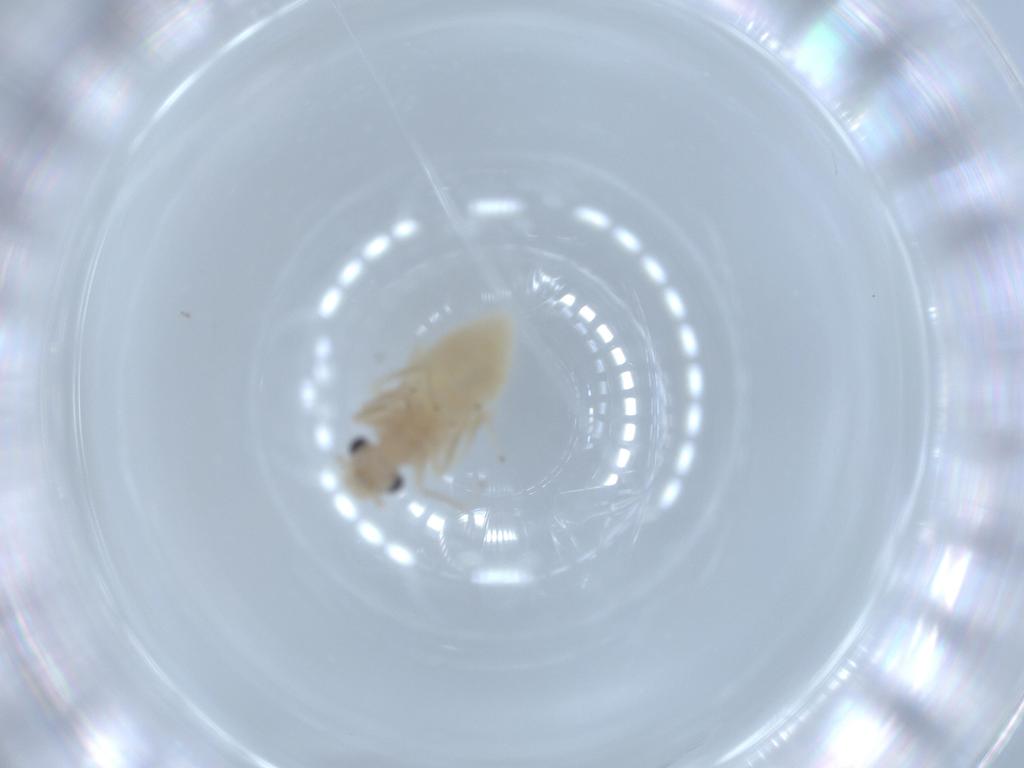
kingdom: Animalia
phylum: Arthropoda
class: Insecta
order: Psocodea
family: Caeciliusidae
